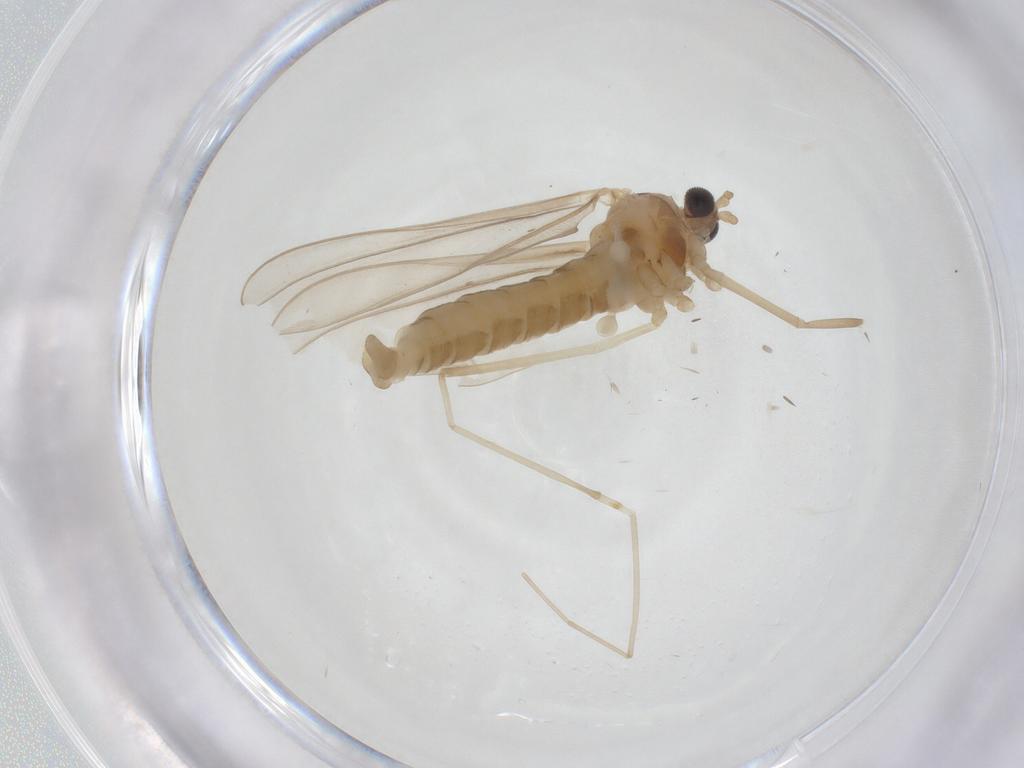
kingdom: Animalia
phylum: Arthropoda
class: Insecta
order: Diptera
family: Cecidomyiidae
